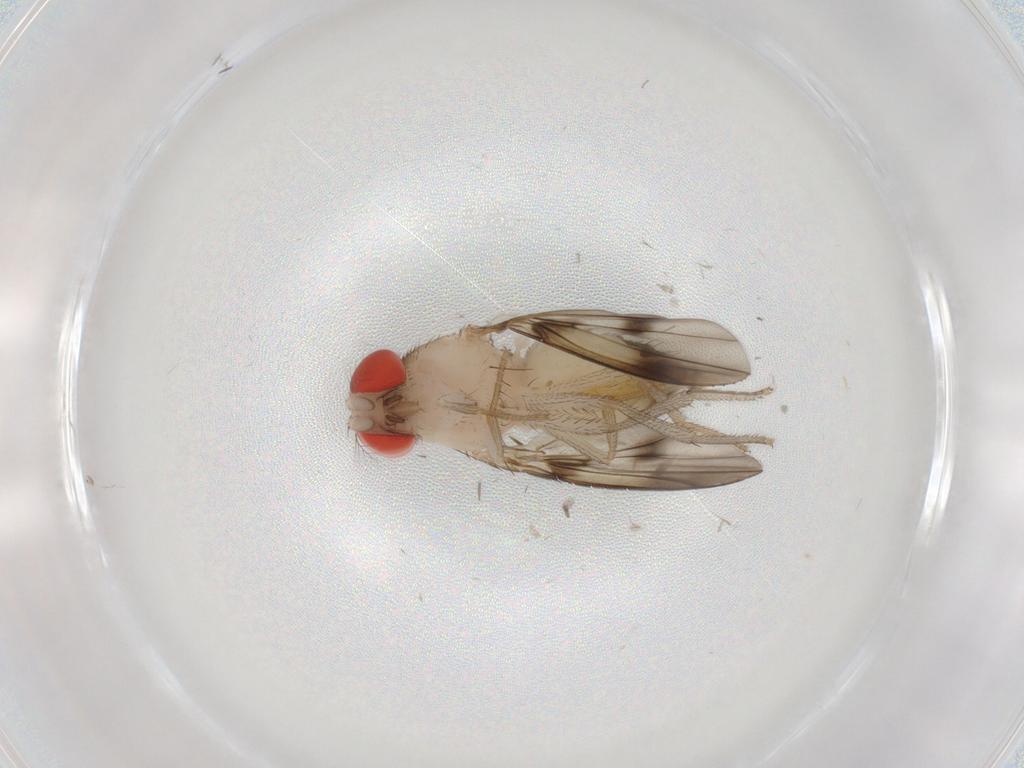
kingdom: Animalia
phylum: Arthropoda
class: Insecta
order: Diptera
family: Drosophilidae
